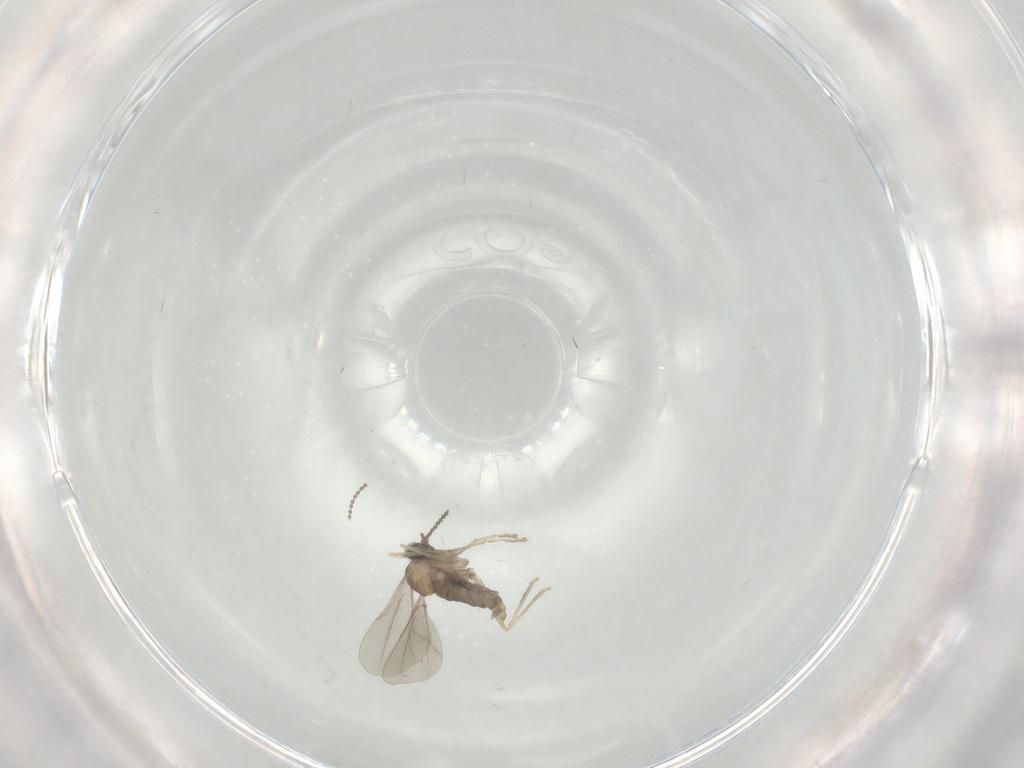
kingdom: Animalia
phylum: Arthropoda
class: Insecta
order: Diptera
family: Cecidomyiidae
